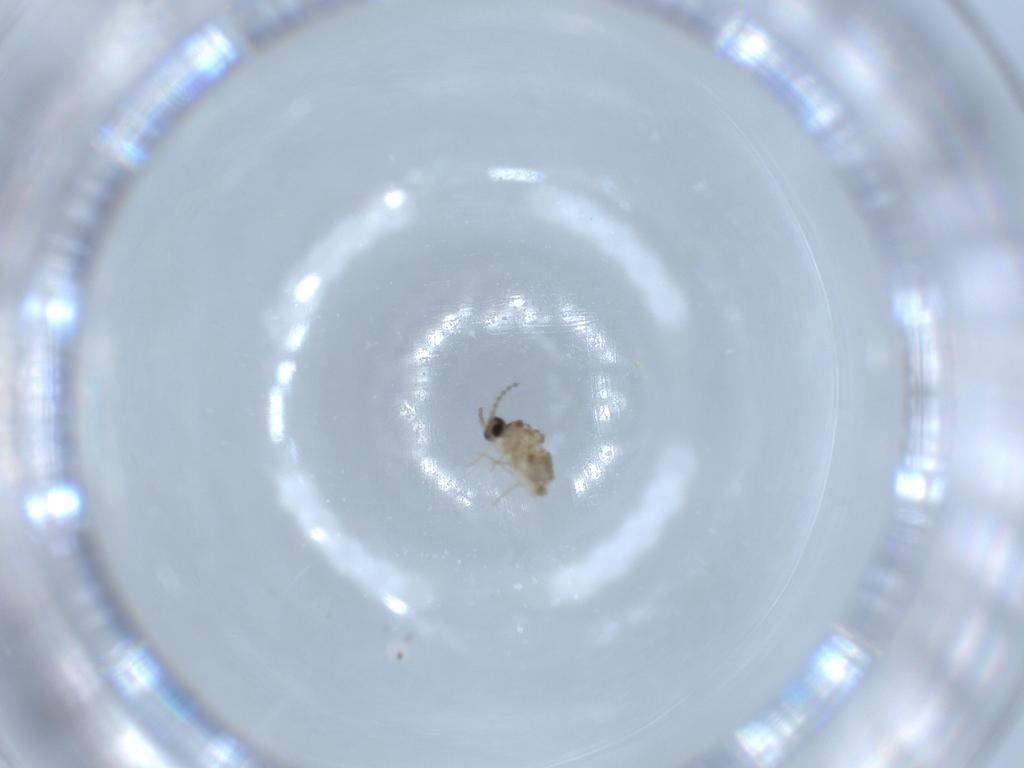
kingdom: Animalia
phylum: Arthropoda
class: Insecta
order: Diptera
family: Cecidomyiidae
